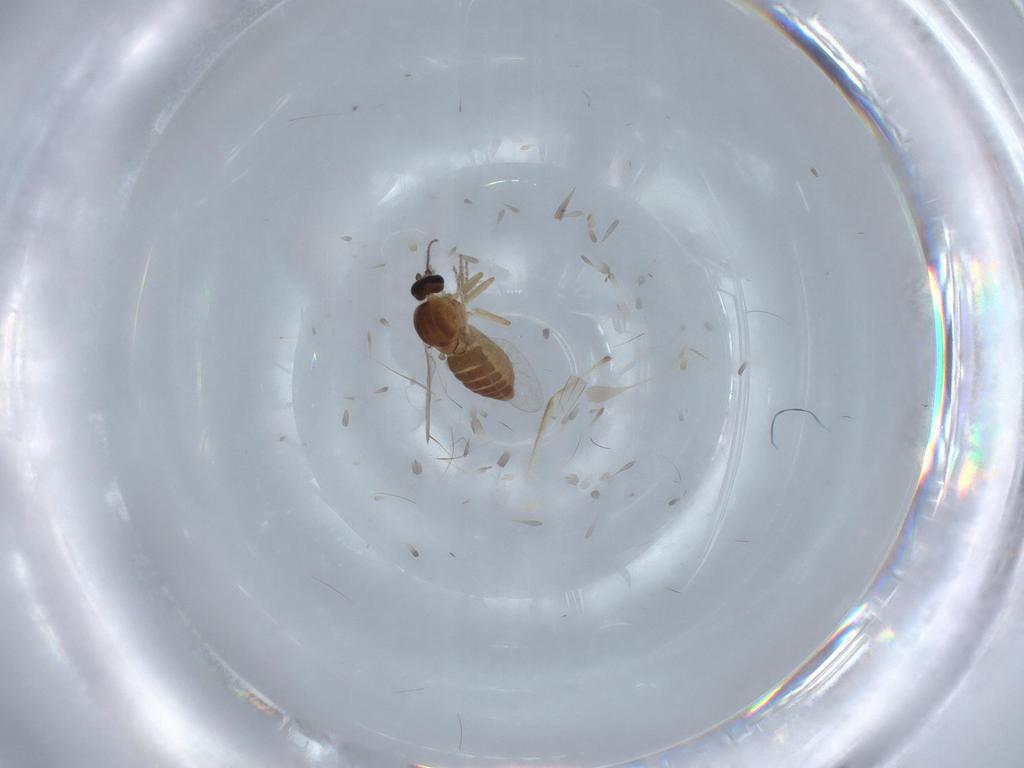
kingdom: Animalia
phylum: Arthropoda
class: Insecta
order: Diptera
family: Ceratopogonidae
